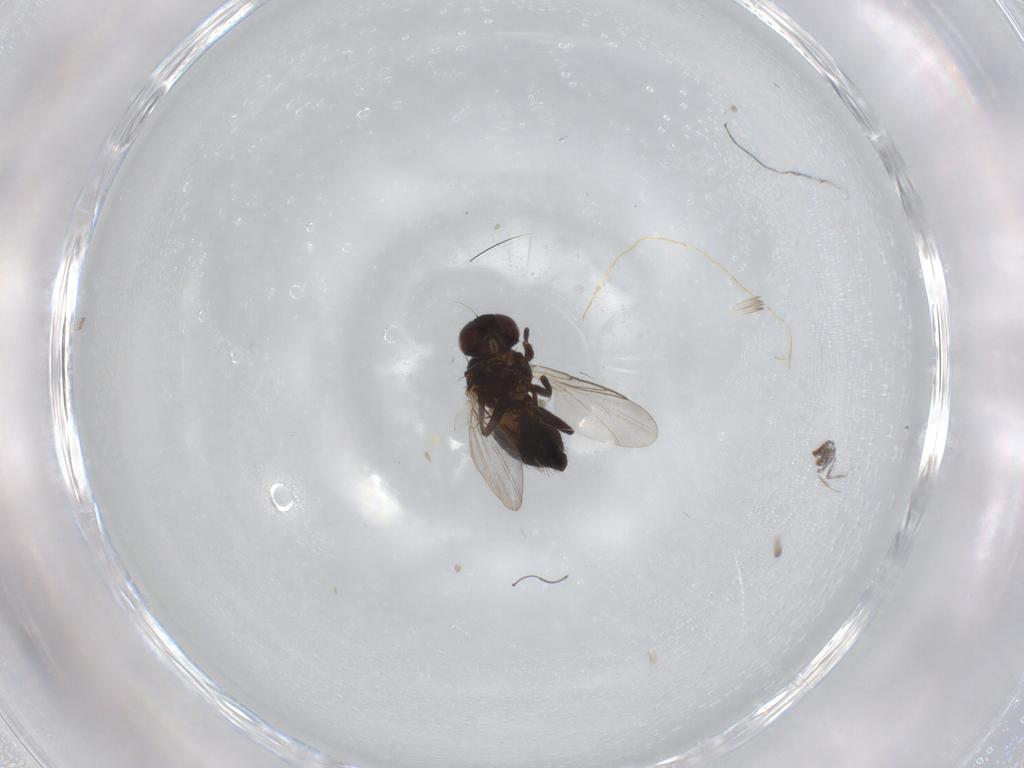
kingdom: Animalia
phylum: Arthropoda
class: Insecta
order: Diptera
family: Cecidomyiidae
